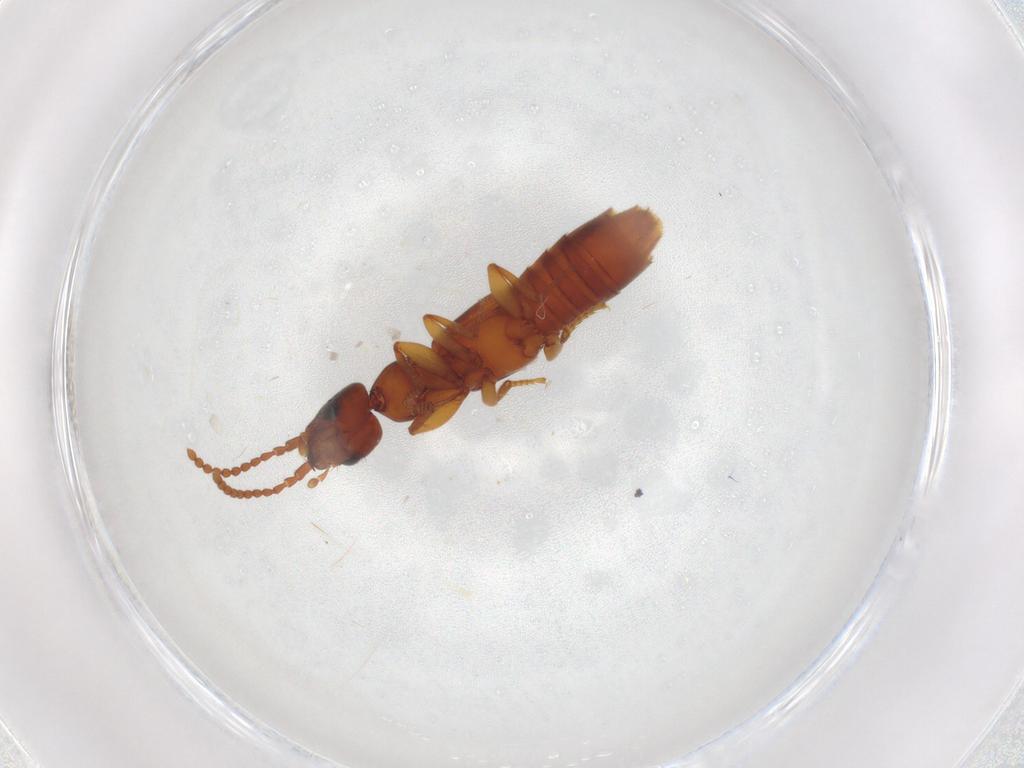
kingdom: Animalia
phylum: Arthropoda
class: Insecta
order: Coleoptera
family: Staphylinidae
